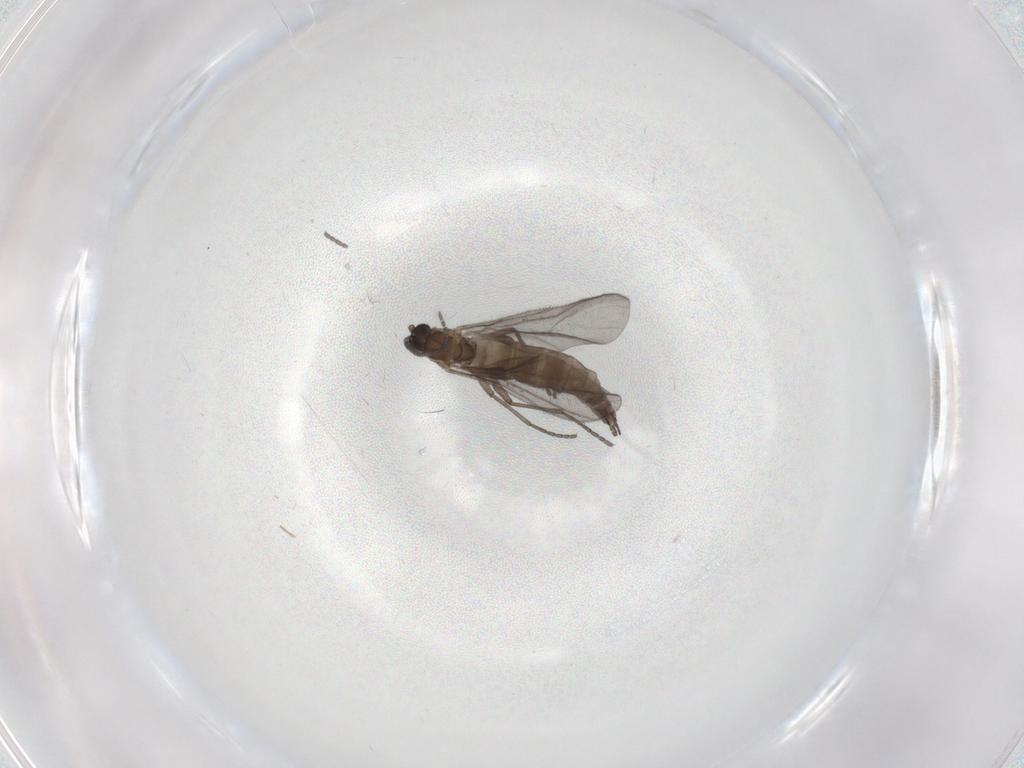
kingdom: Animalia
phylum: Arthropoda
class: Insecta
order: Diptera
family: Sciaridae
